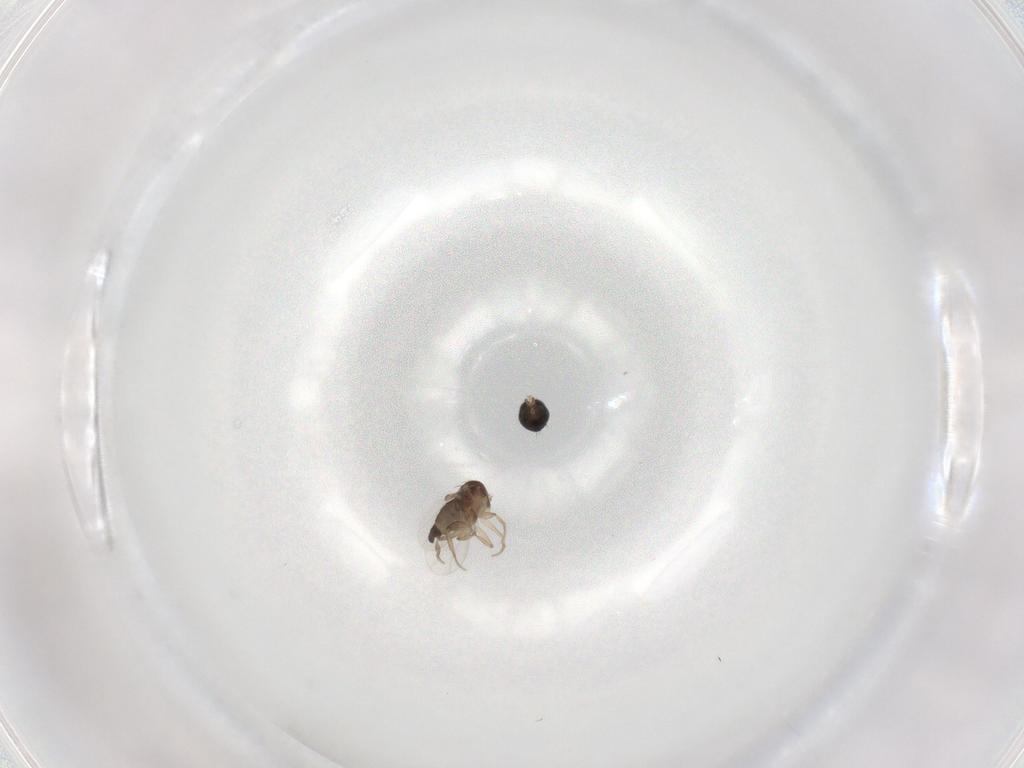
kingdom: Animalia
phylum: Arthropoda
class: Insecta
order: Diptera
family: Phoridae
